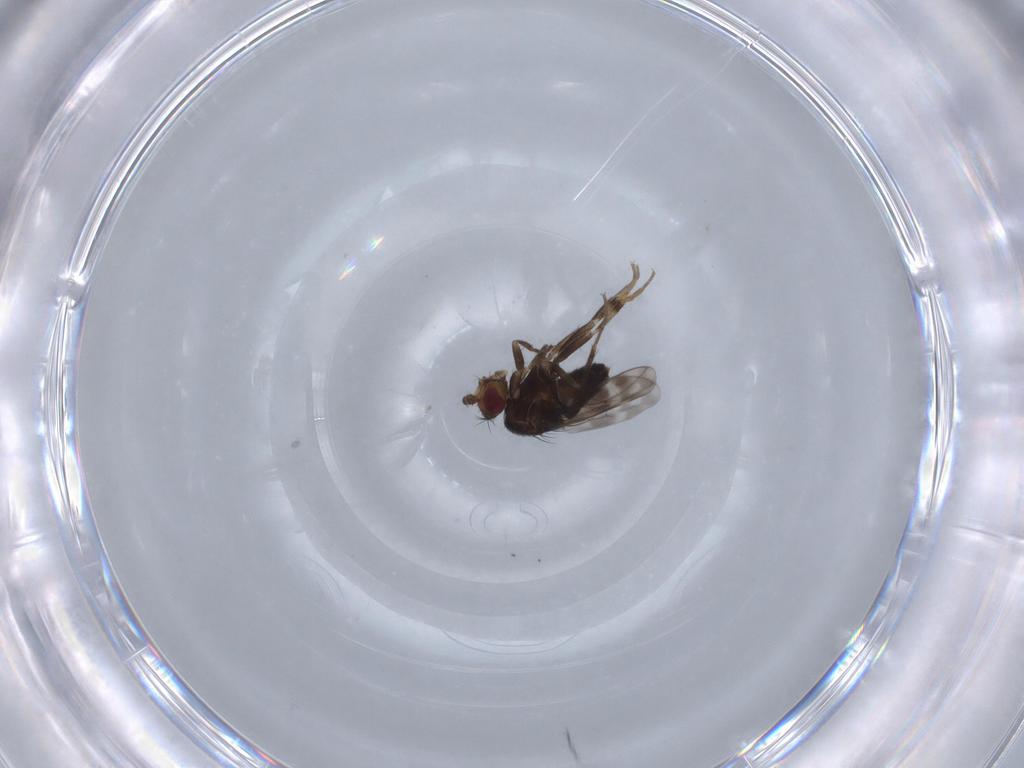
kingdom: Animalia
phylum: Arthropoda
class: Insecta
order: Diptera
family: Sphaeroceridae
